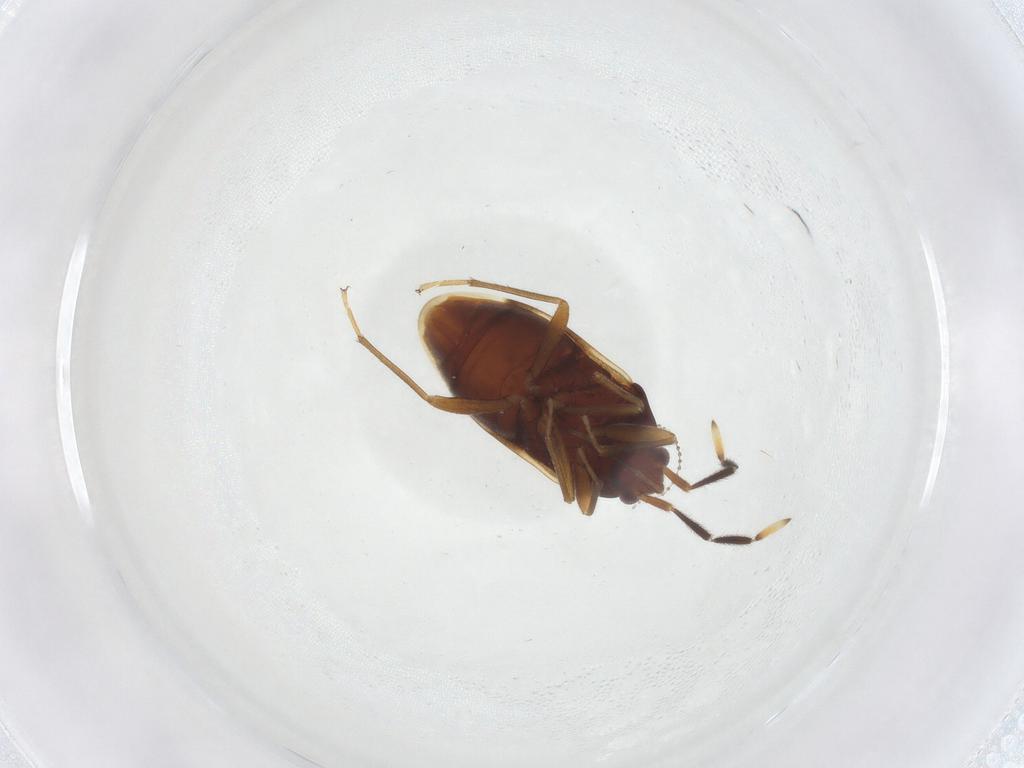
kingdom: Animalia
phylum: Arthropoda
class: Insecta
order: Hemiptera
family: Rhyparochromidae
